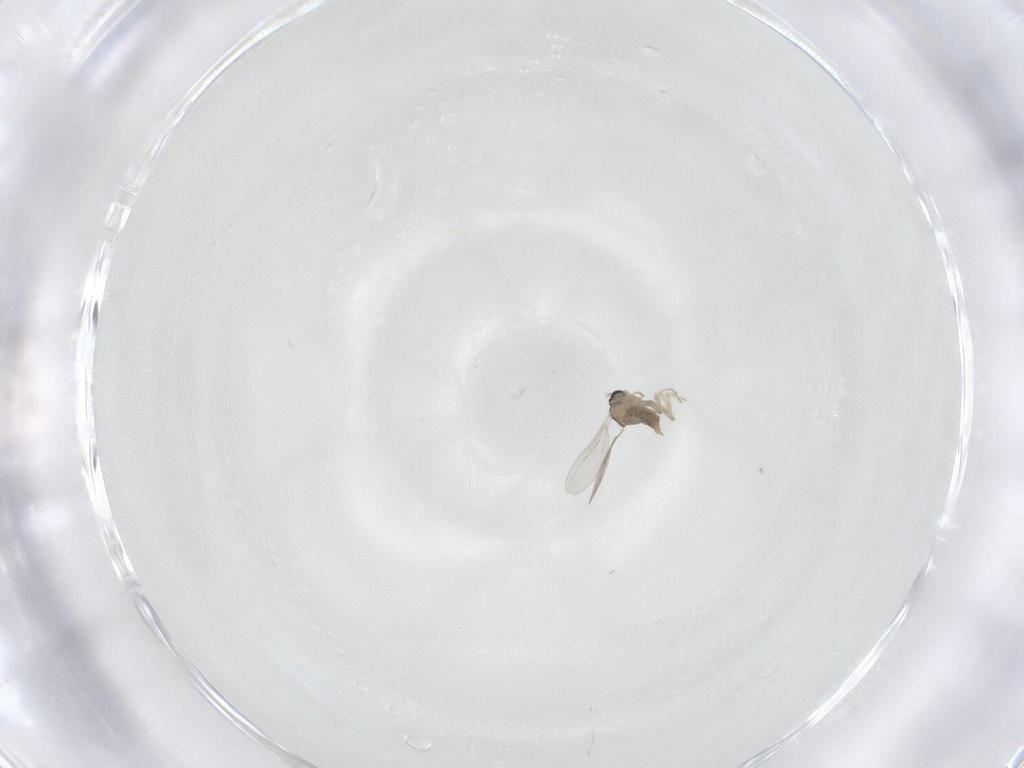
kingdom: Animalia
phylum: Arthropoda
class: Insecta
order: Diptera
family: Cecidomyiidae
